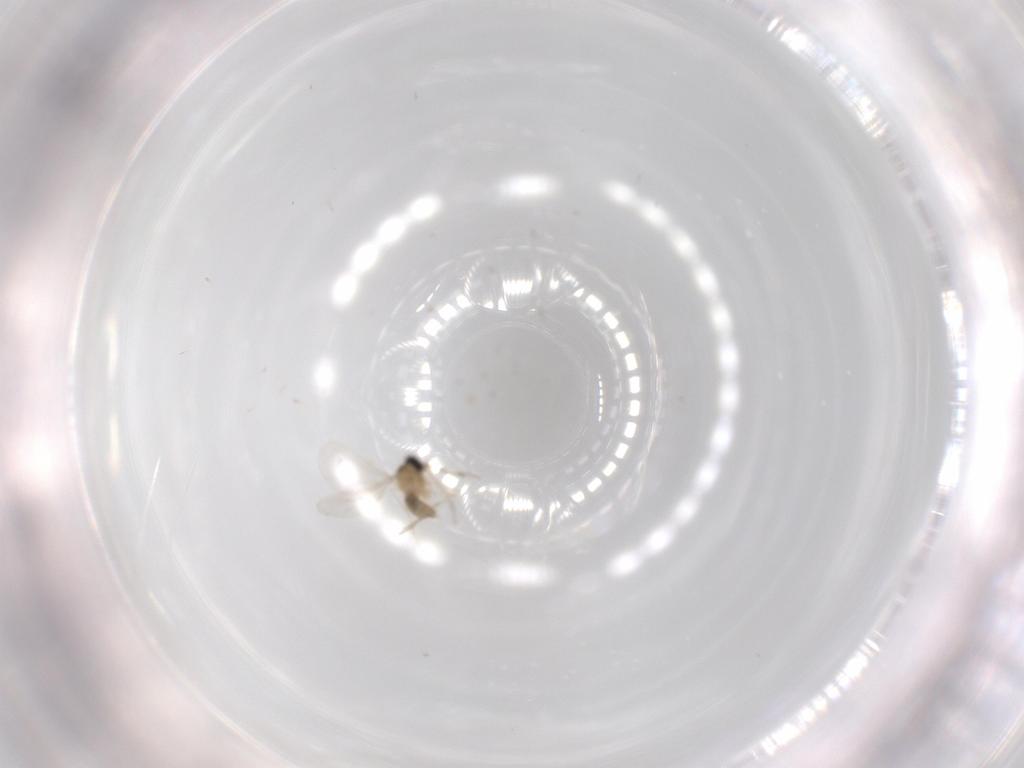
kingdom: Animalia
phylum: Arthropoda
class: Insecta
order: Diptera
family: Cecidomyiidae
